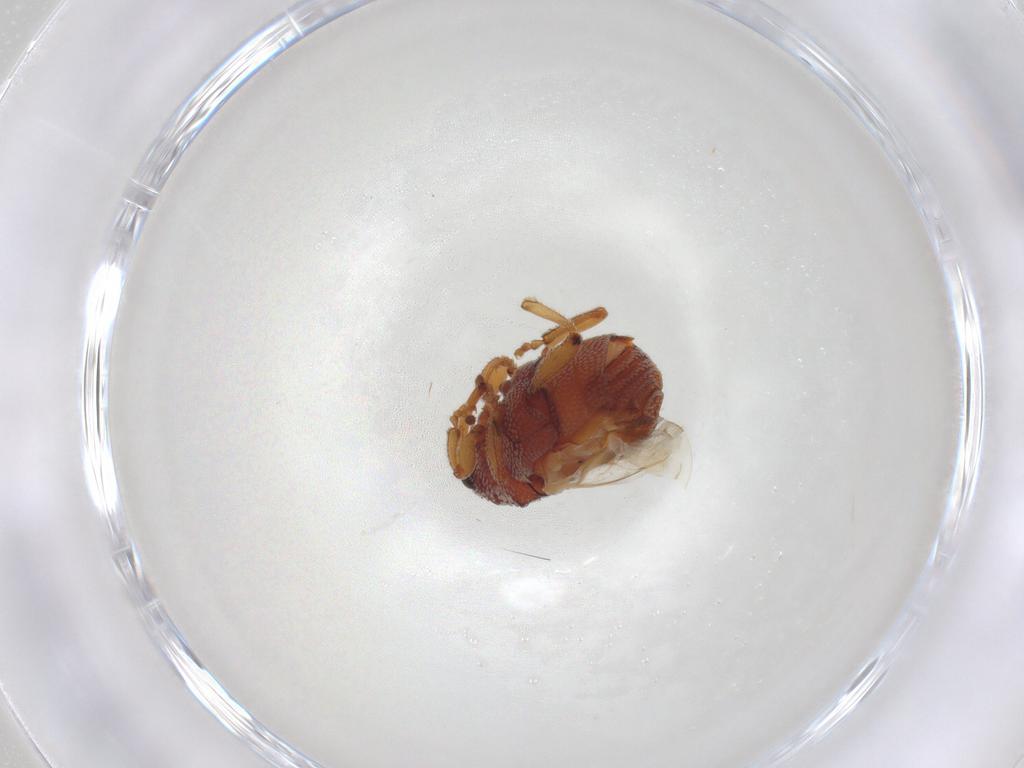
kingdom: Animalia
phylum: Arthropoda
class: Insecta
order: Coleoptera
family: Curculionidae
